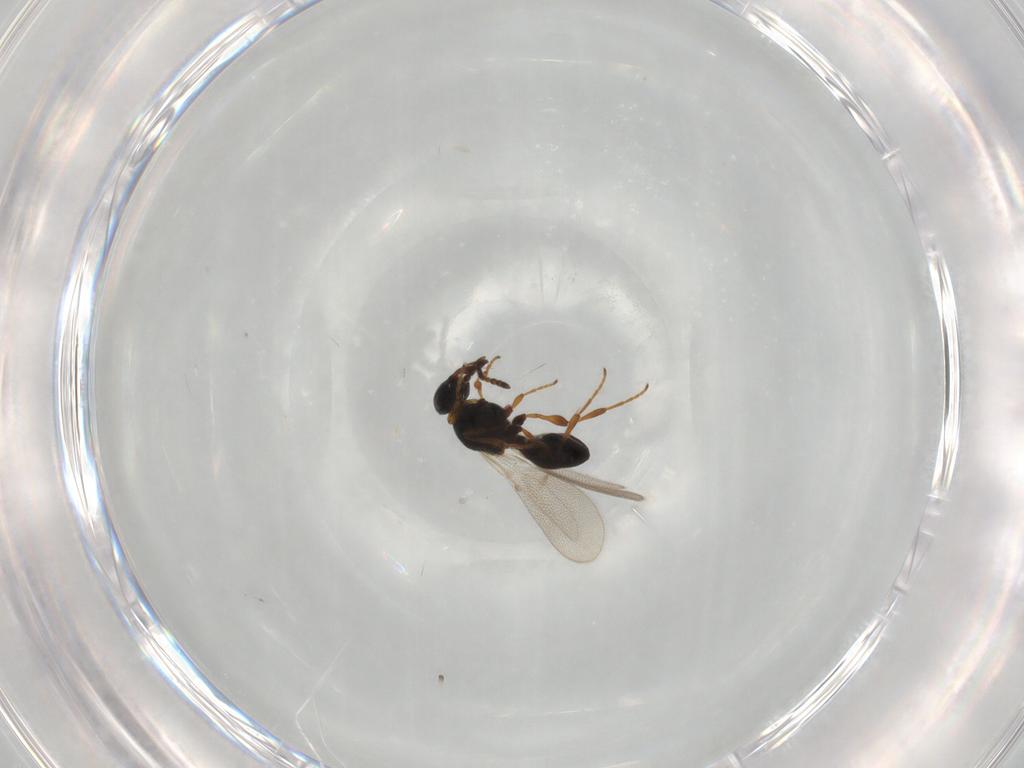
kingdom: Animalia
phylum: Arthropoda
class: Insecta
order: Hymenoptera
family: Platygastridae
